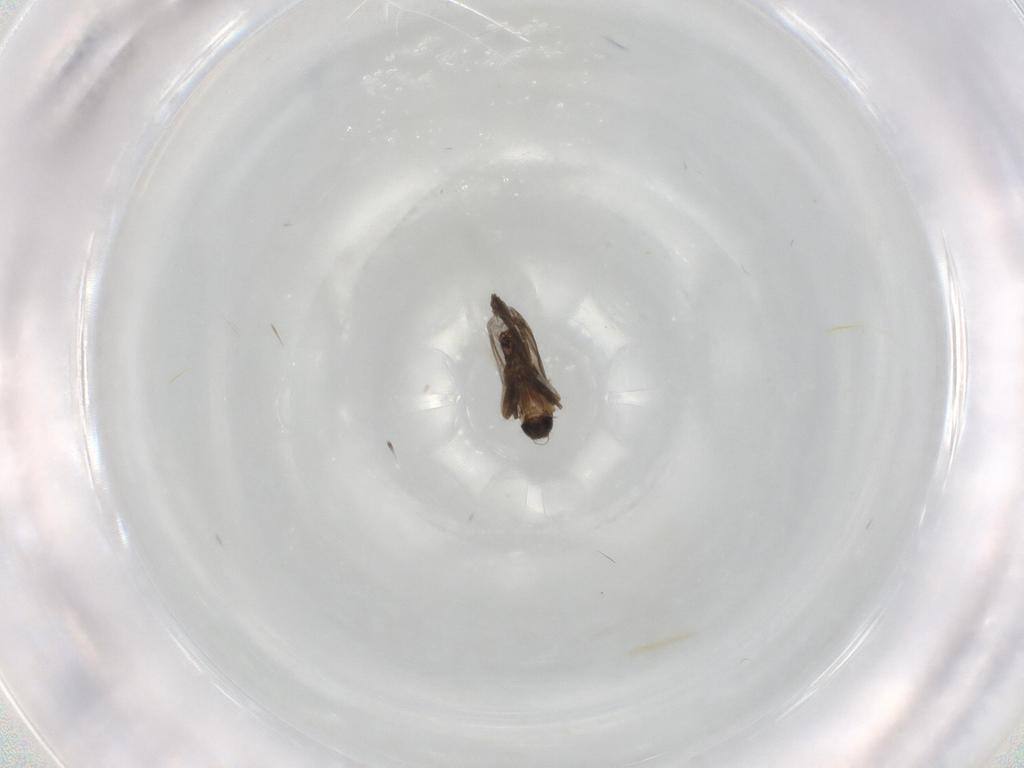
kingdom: Animalia
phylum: Arthropoda
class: Insecta
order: Diptera
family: Phoridae
